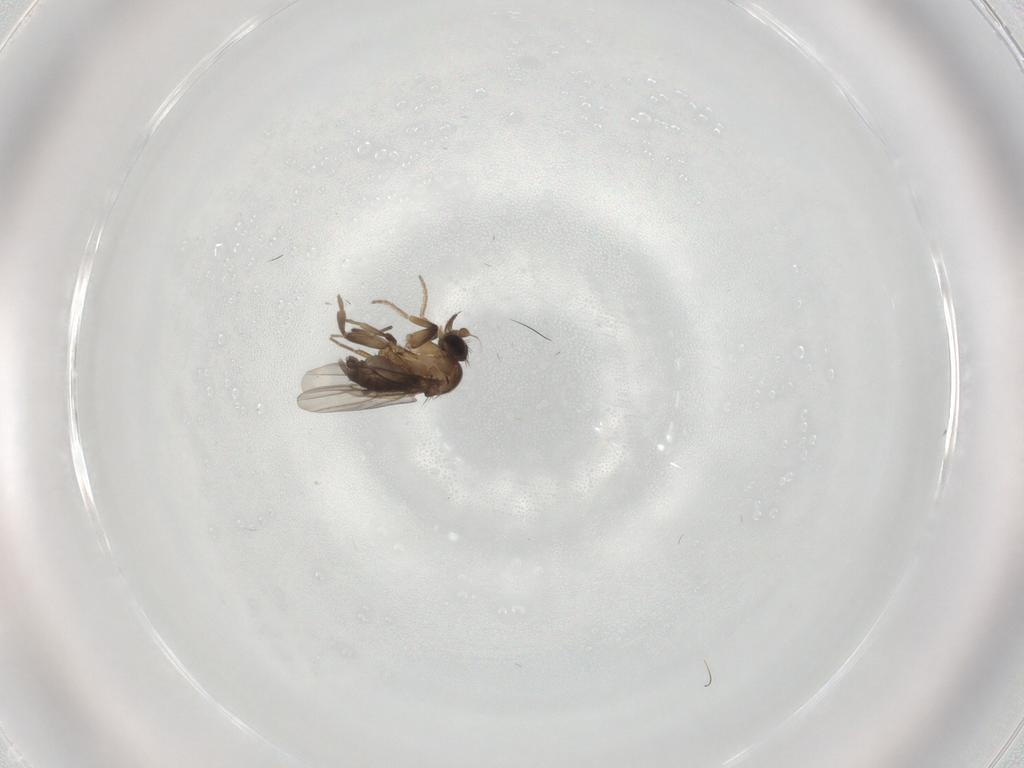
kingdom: Animalia
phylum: Arthropoda
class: Insecta
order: Diptera
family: Phoridae
